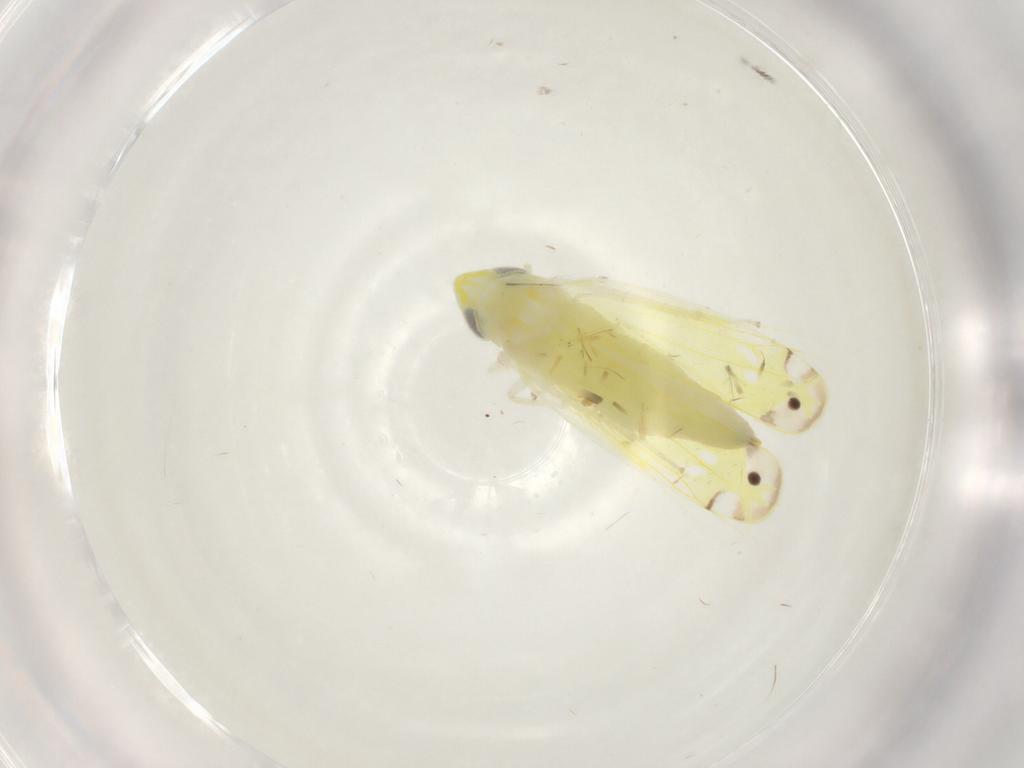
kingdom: Animalia
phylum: Arthropoda
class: Insecta
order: Hemiptera
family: Cicadellidae
